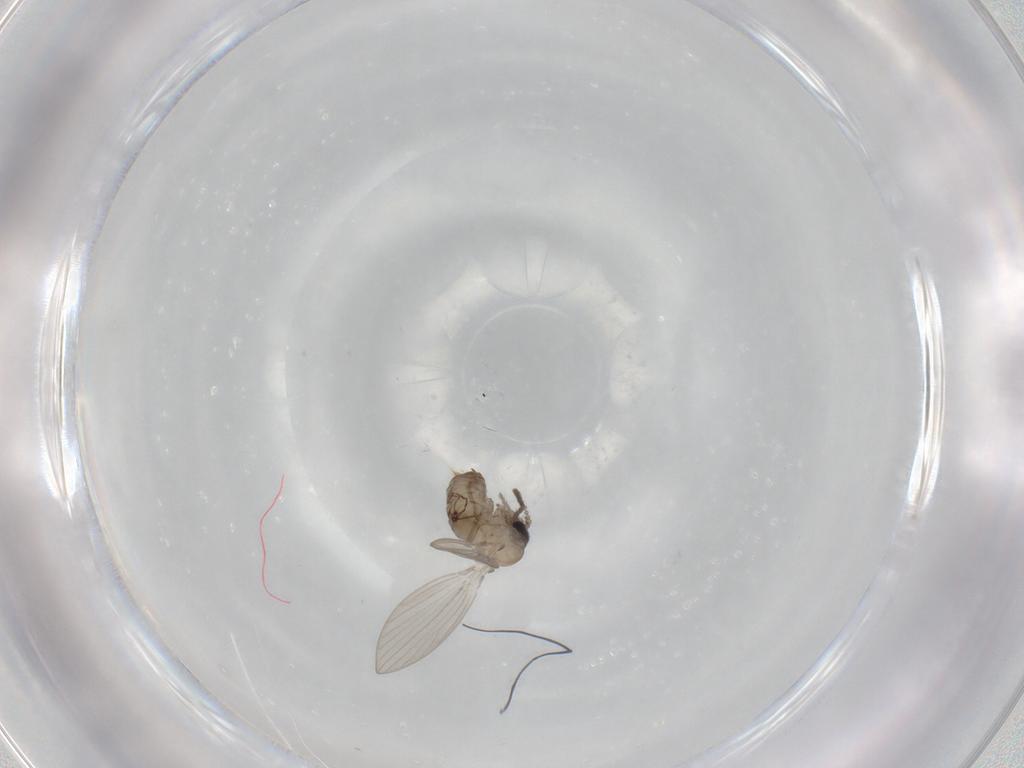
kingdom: Animalia
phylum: Arthropoda
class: Insecta
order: Diptera
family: Psychodidae
